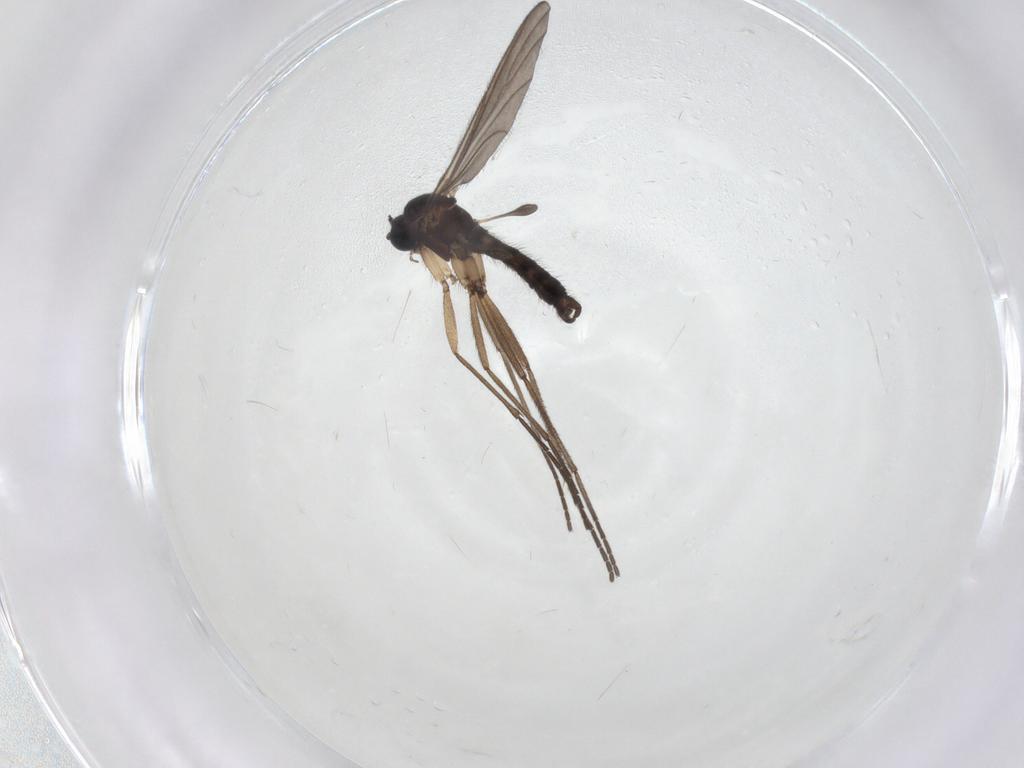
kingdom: Animalia
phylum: Arthropoda
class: Insecta
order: Diptera
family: Sciaridae
